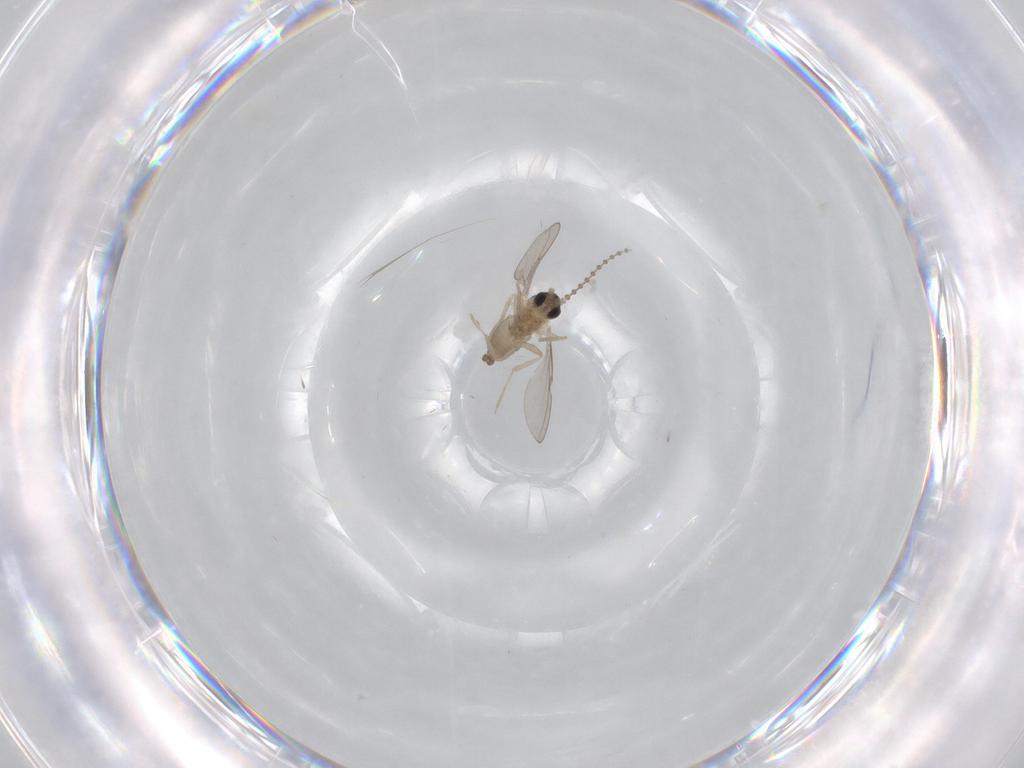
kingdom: Animalia
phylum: Arthropoda
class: Insecta
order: Diptera
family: Cecidomyiidae
